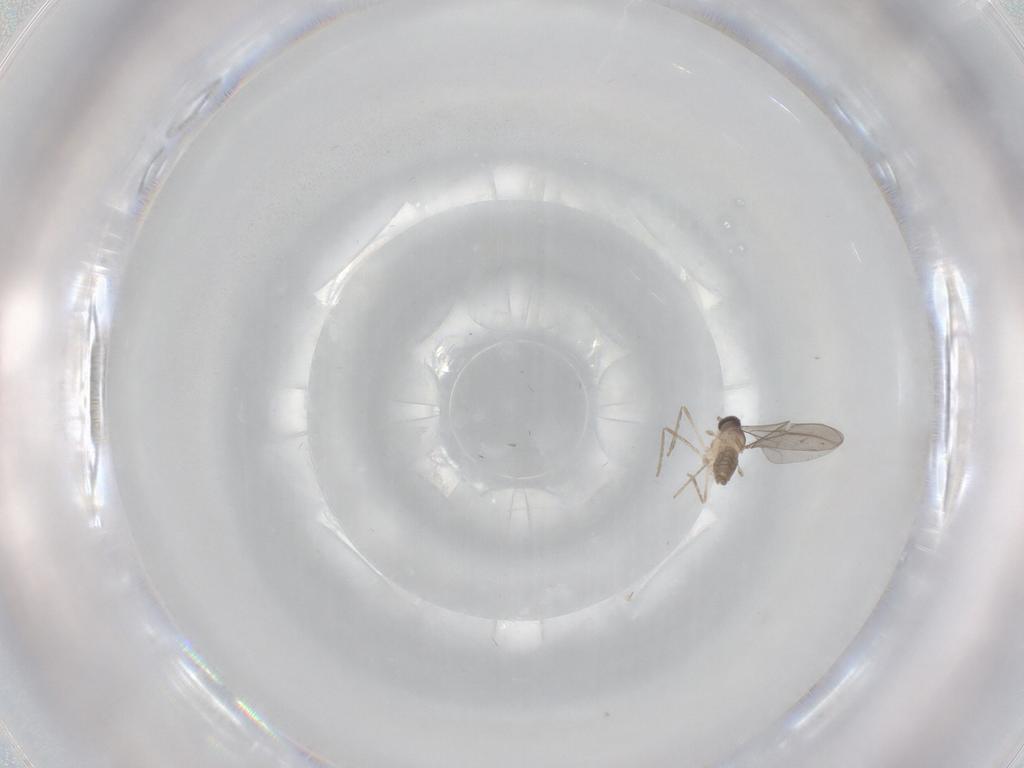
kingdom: Animalia
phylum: Arthropoda
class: Insecta
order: Diptera
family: Cecidomyiidae
